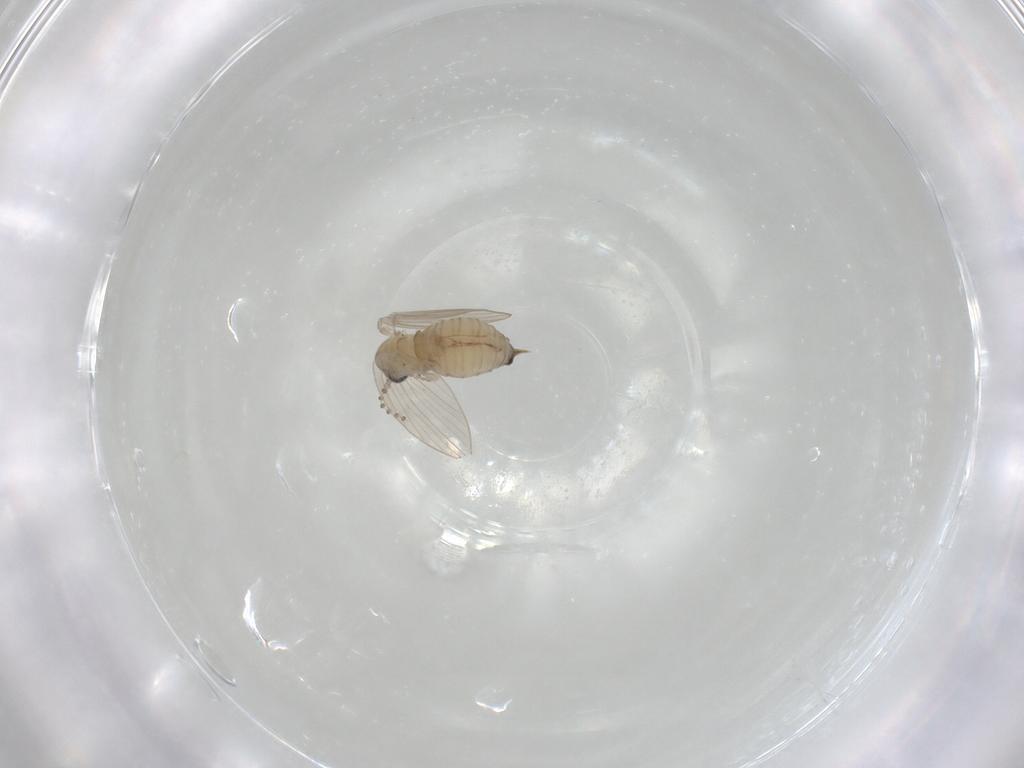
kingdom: Animalia
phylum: Arthropoda
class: Insecta
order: Diptera
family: Psychodidae
